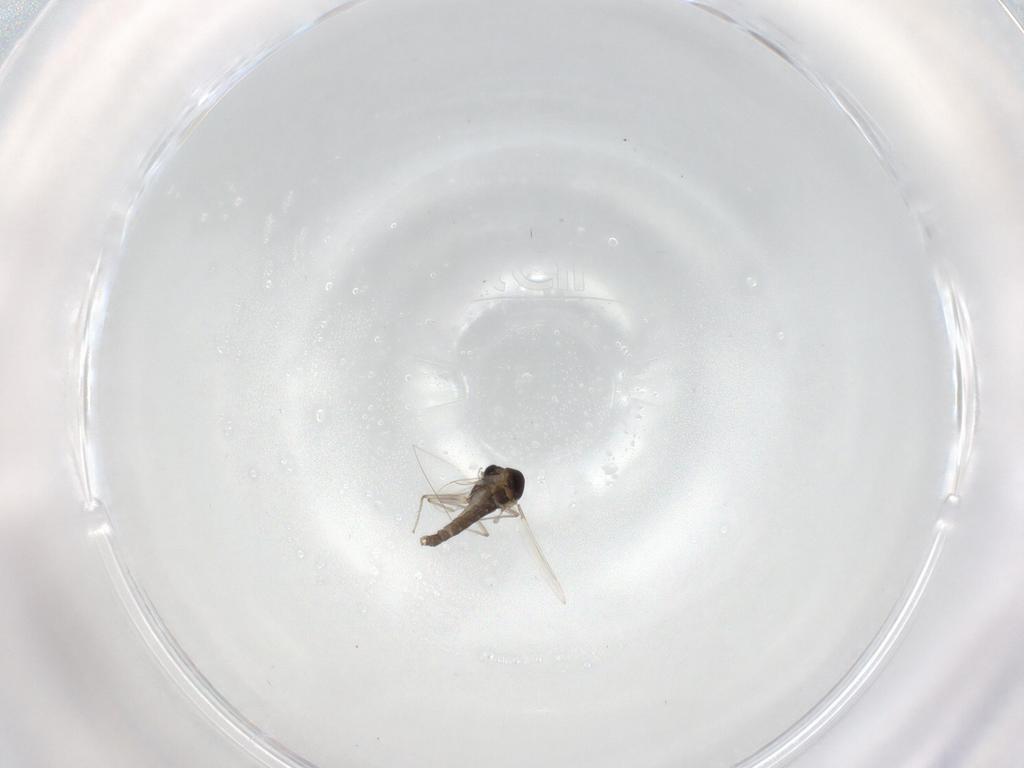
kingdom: Animalia
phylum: Arthropoda
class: Insecta
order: Diptera
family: Chironomidae
